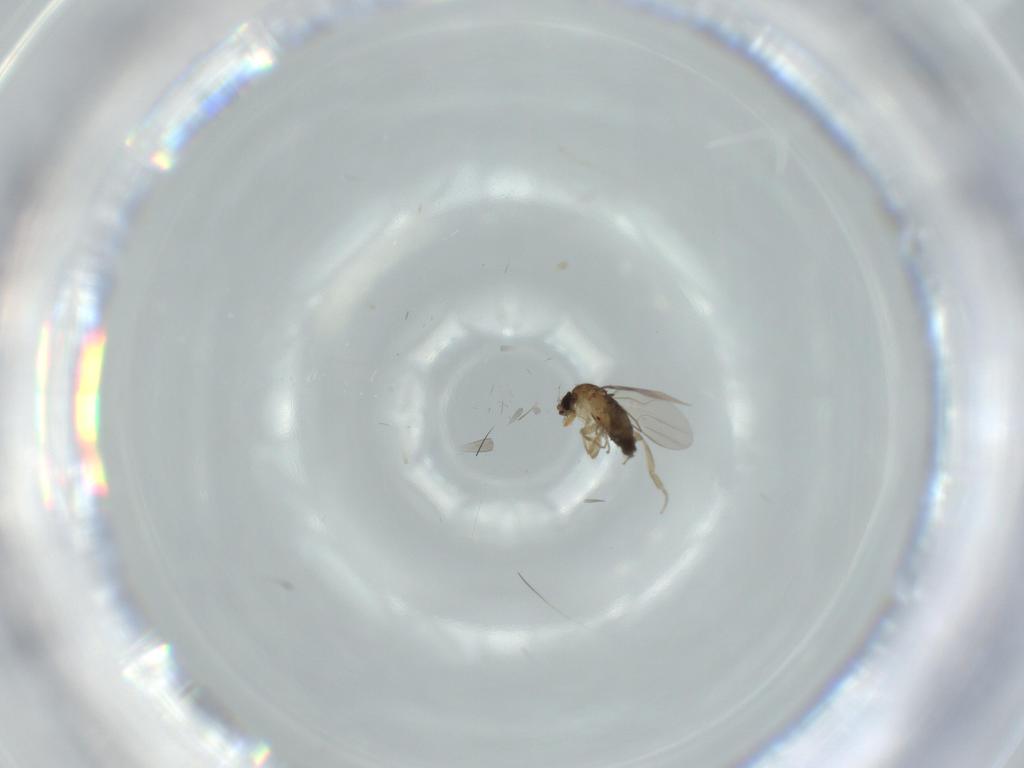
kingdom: Animalia
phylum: Arthropoda
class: Insecta
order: Diptera
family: Phoridae
